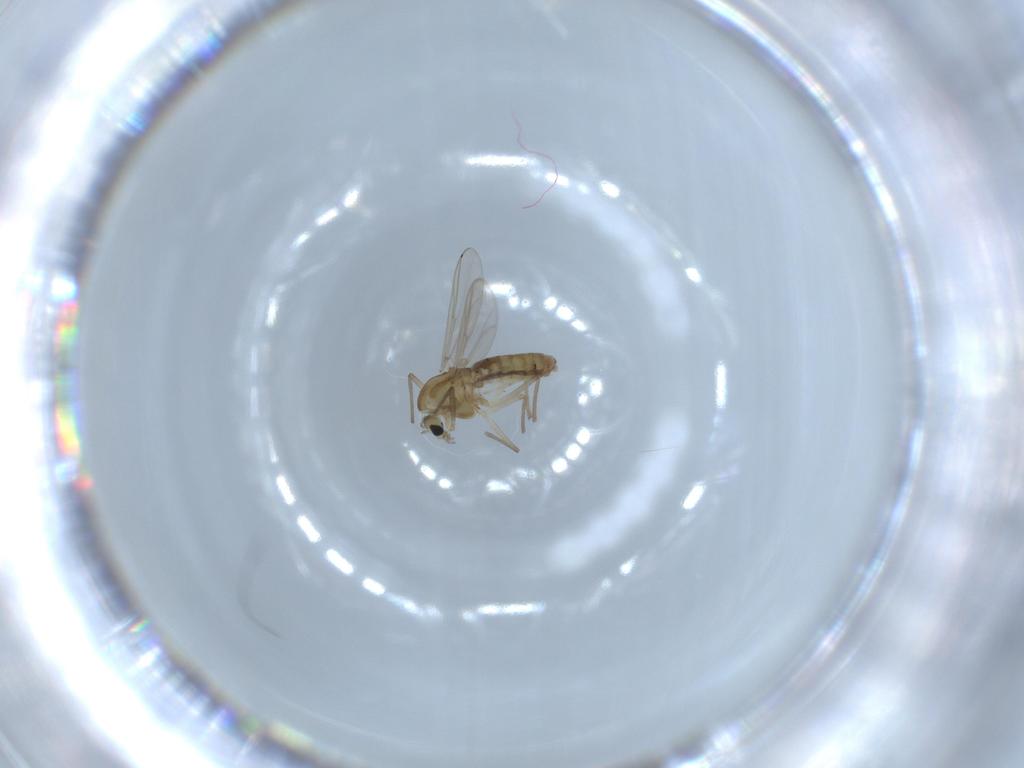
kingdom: Animalia
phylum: Arthropoda
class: Insecta
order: Diptera
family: Chironomidae
